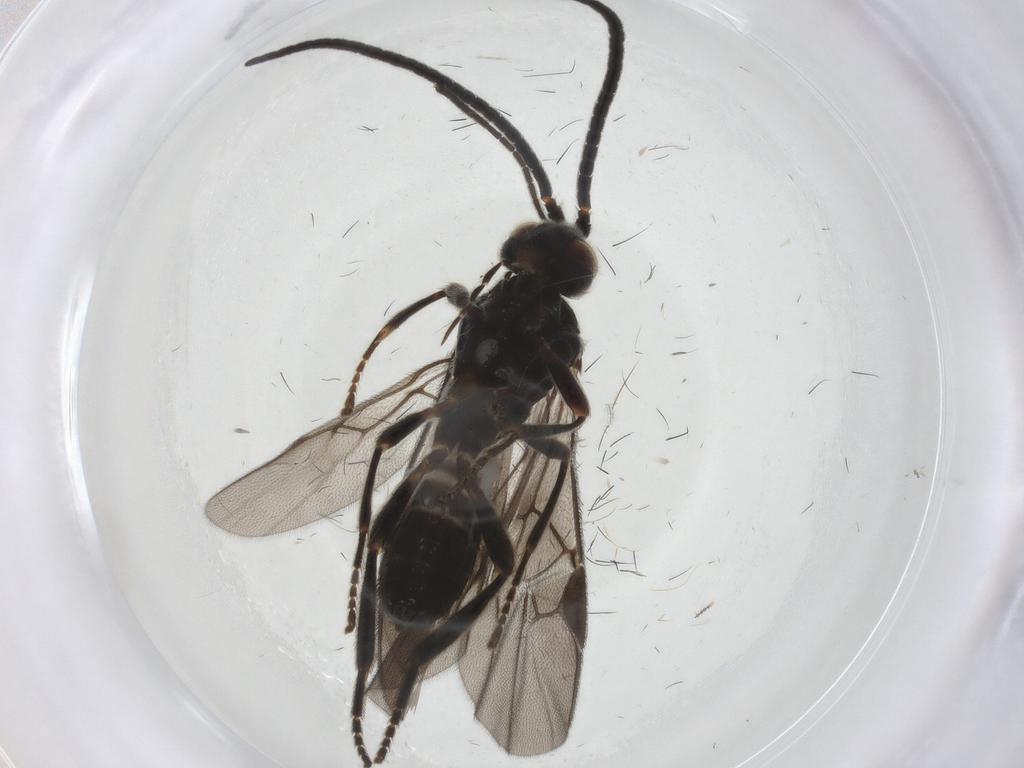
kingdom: Animalia
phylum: Arthropoda
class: Insecta
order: Hymenoptera
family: Braconidae
